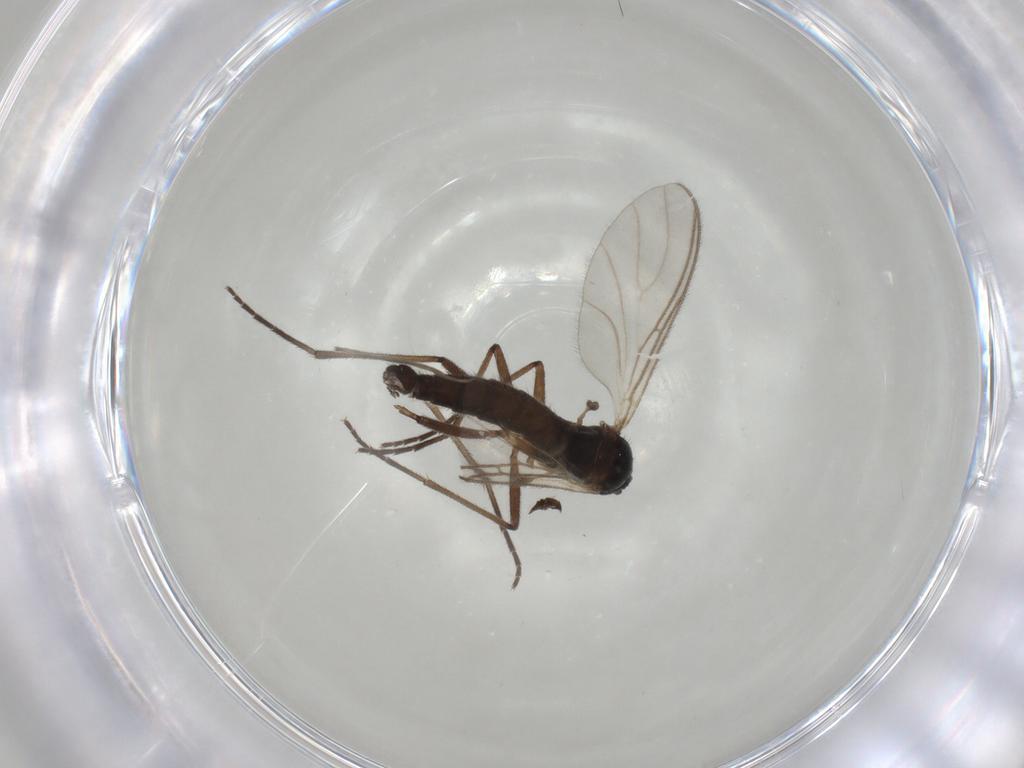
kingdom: Animalia
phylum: Arthropoda
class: Insecta
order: Diptera
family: Sciaridae
